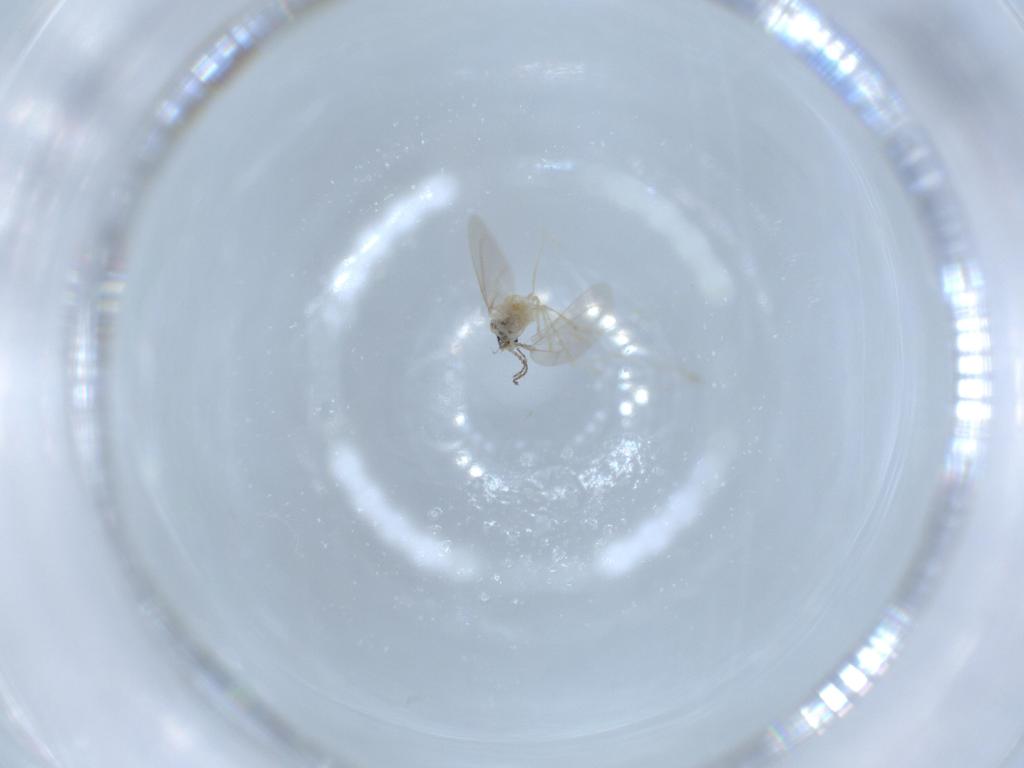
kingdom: Animalia
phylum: Arthropoda
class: Insecta
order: Diptera
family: Cecidomyiidae
